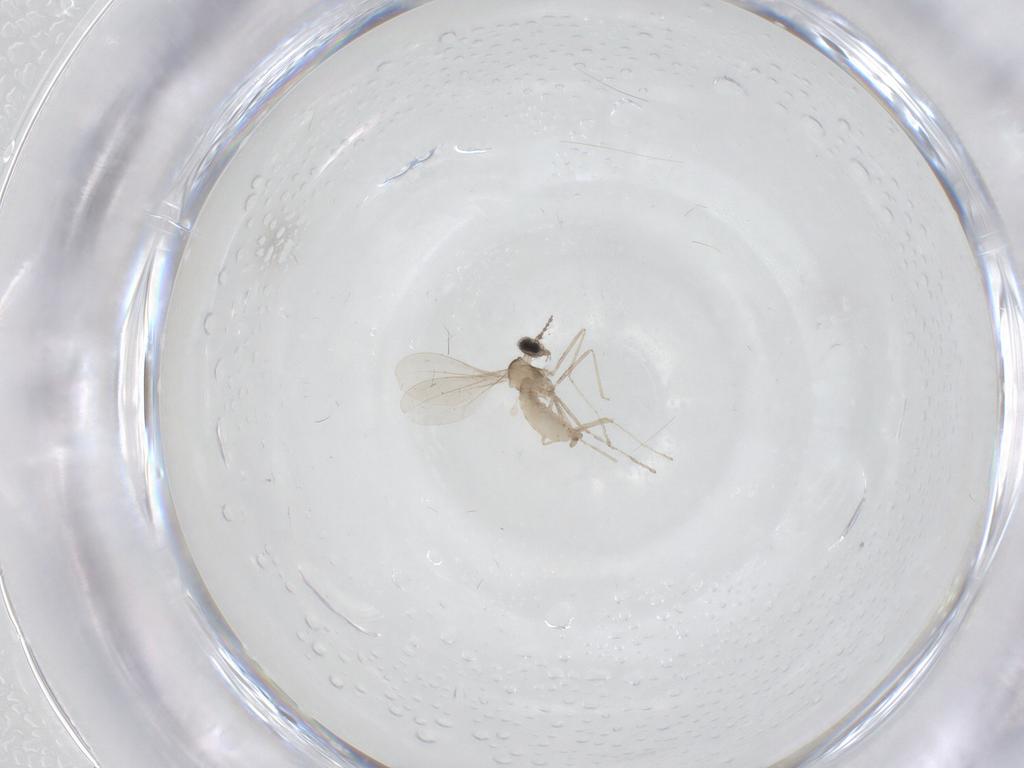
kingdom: Animalia
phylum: Arthropoda
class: Insecta
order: Diptera
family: Cecidomyiidae
